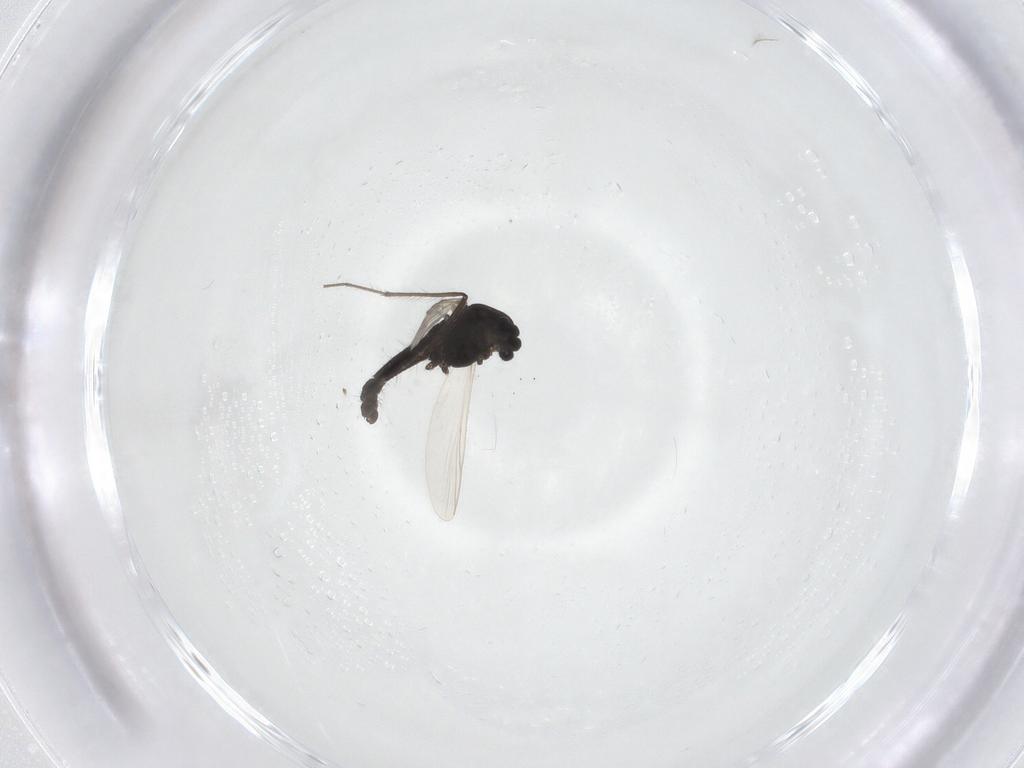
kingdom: Animalia
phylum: Arthropoda
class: Insecta
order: Diptera
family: Chironomidae
